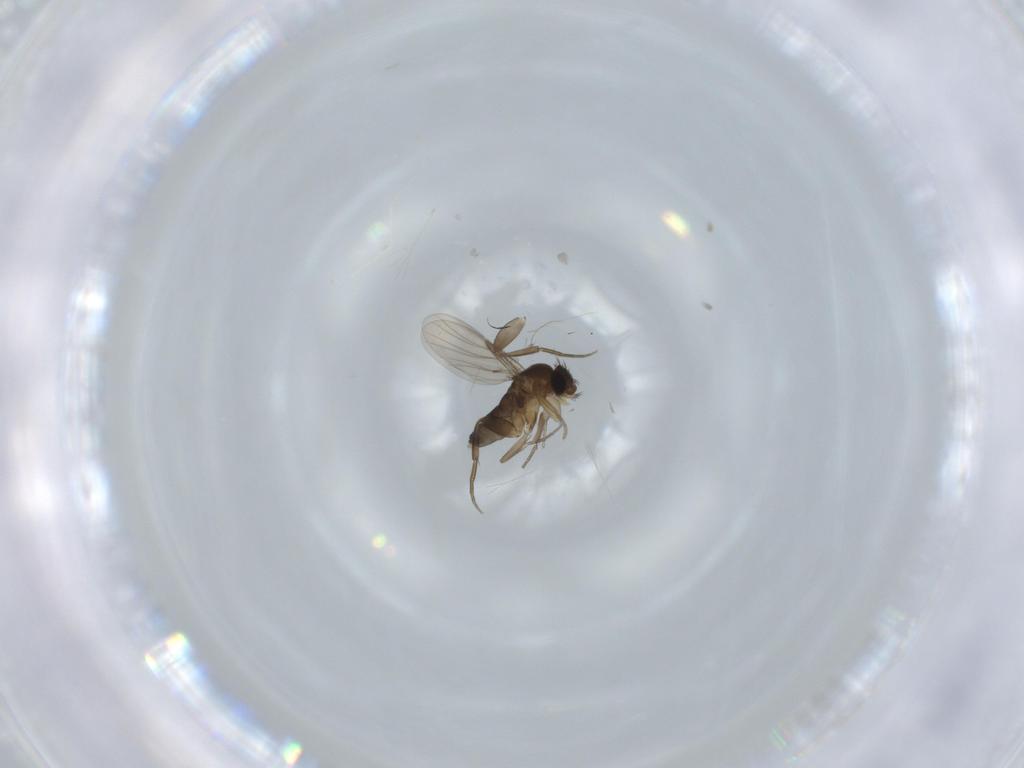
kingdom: Animalia
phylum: Arthropoda
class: Insecta
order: Diptera
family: Phoridae
